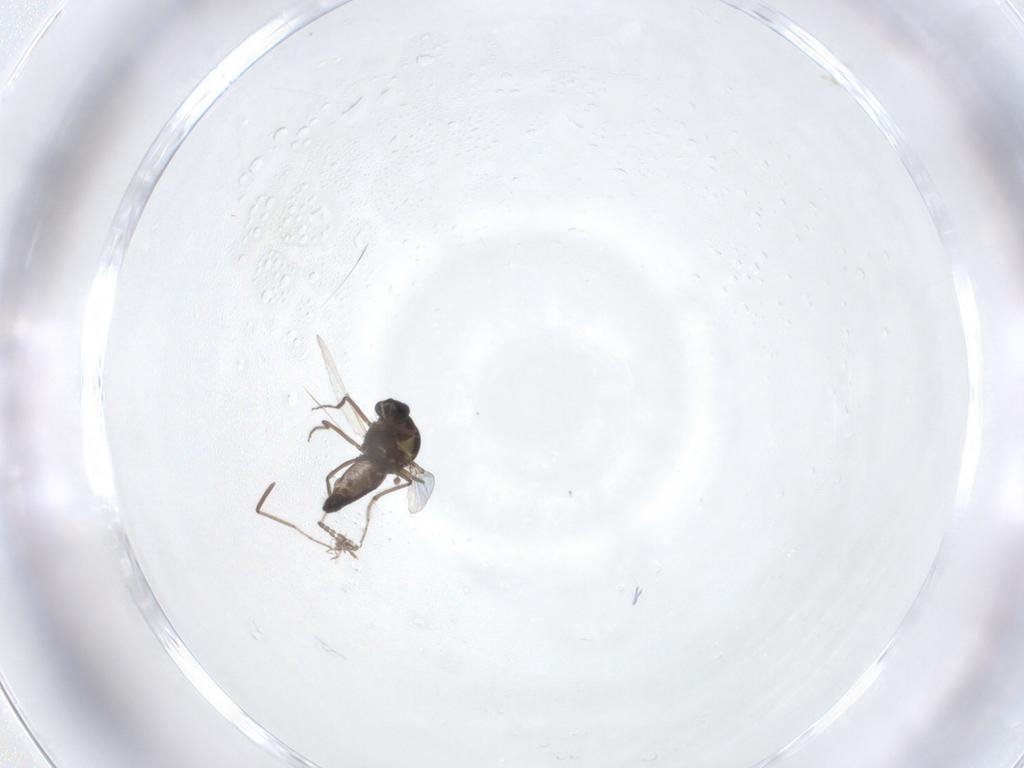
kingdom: Animalia
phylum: Arthropoda
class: Insecta
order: Diptera
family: Ceratopogonidae
